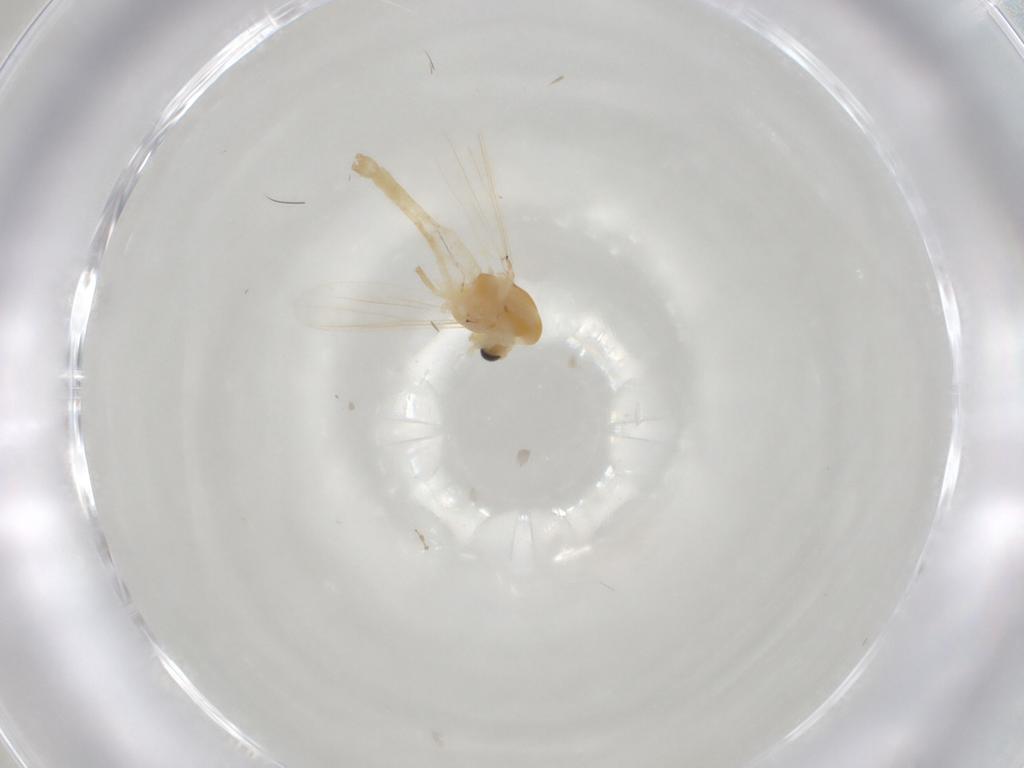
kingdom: Animalia
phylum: Arthropoda
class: Insecta
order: Diptera
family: Chironomidae
